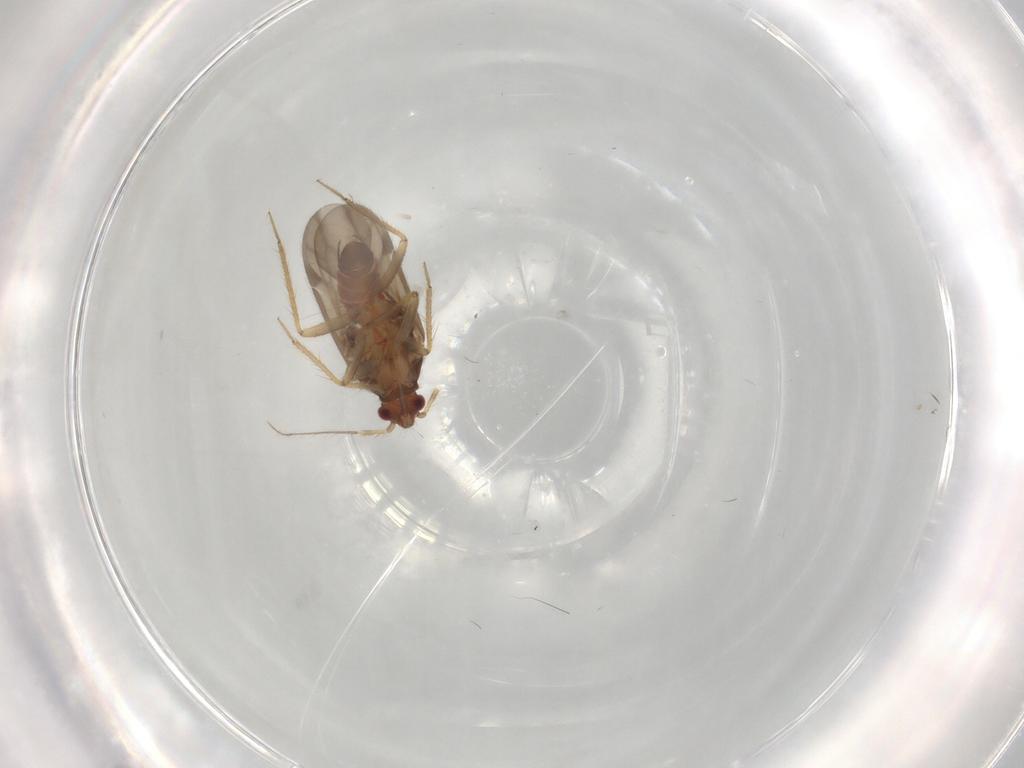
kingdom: Animalia
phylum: Arthropoda
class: Insecta
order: Hemiptera
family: Ceratocombidae
